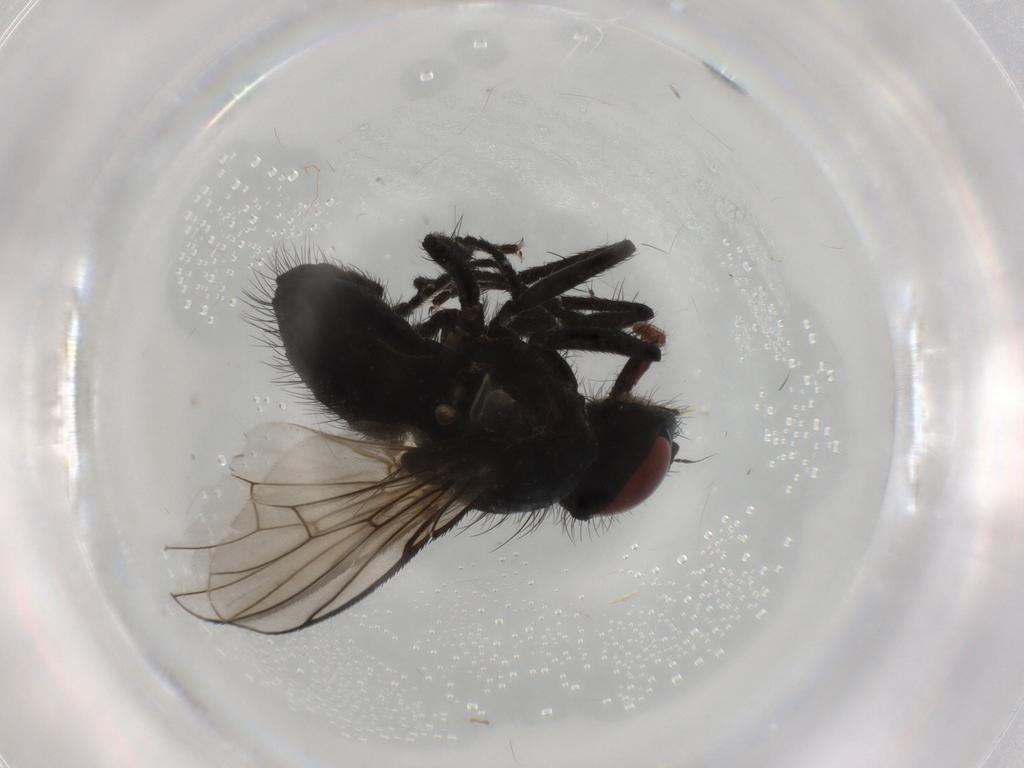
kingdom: Animalia
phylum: Arthropoda
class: Insecta
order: Diptera
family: Muscidae
